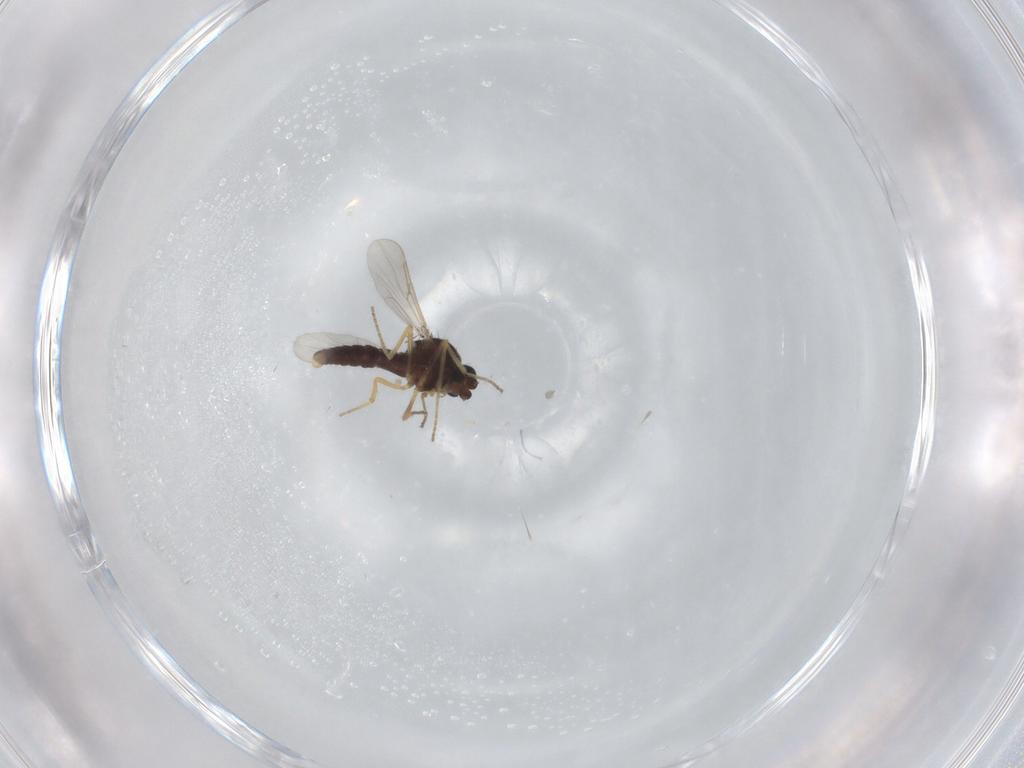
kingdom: Animalia
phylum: Arthropoda
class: Insecta
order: Diptera
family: Ceratopogonidae
